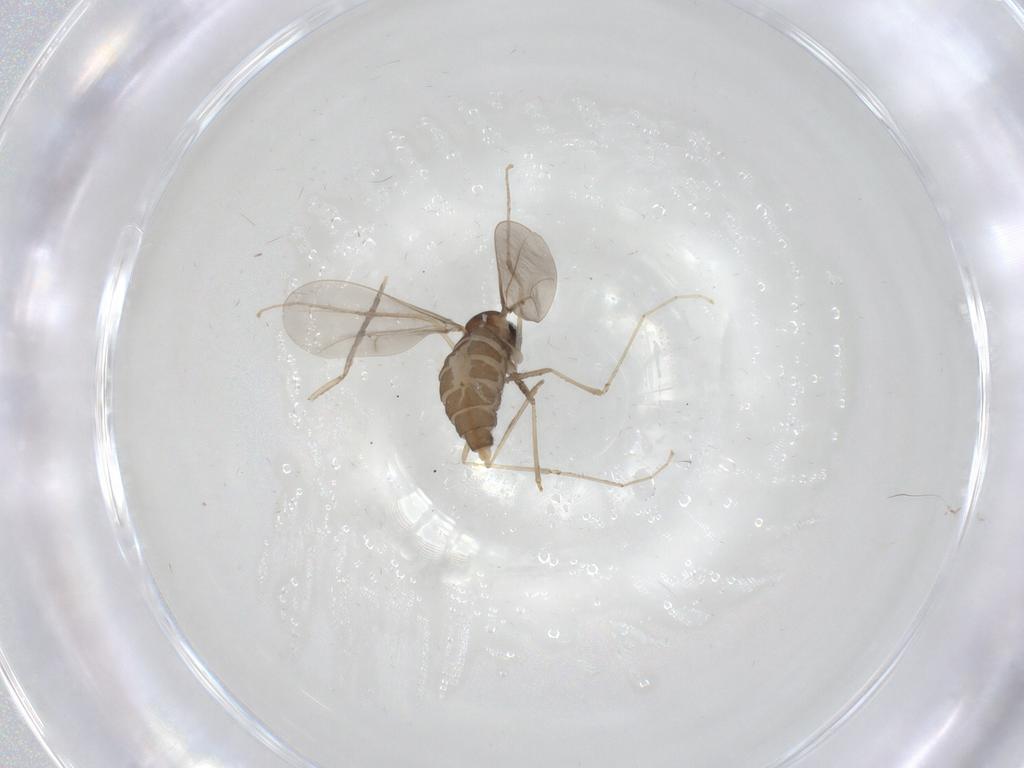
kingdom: Animalia
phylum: Arthropoda
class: Insecta
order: Diptera
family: Cecidomyiidae
